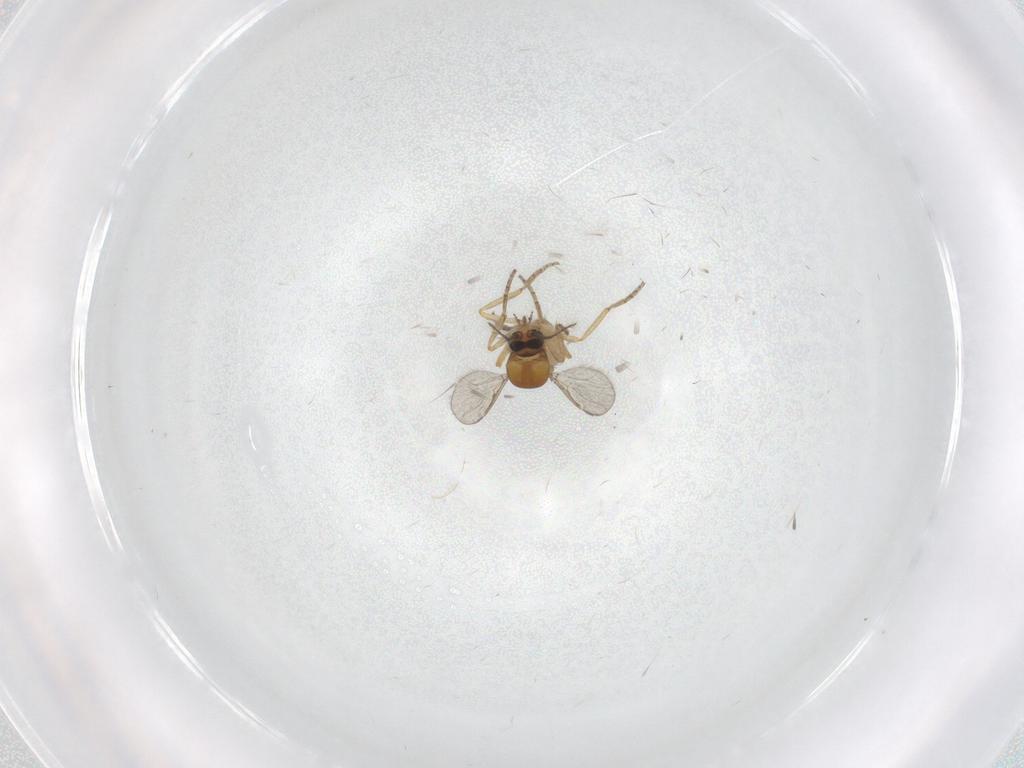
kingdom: Animalia
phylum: Arthropoda
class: Insecta
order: Diptera
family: Ceratopogonidae
